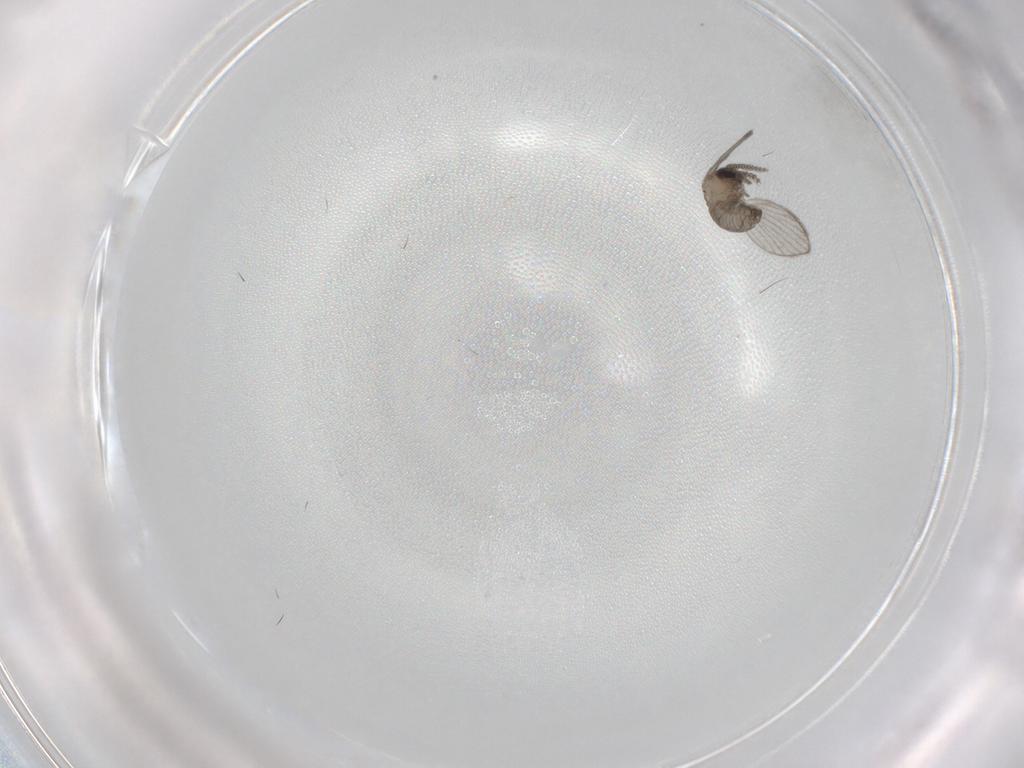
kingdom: Animalia
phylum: Arthropoda
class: Insecta
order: Diptera
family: Psychodidae
